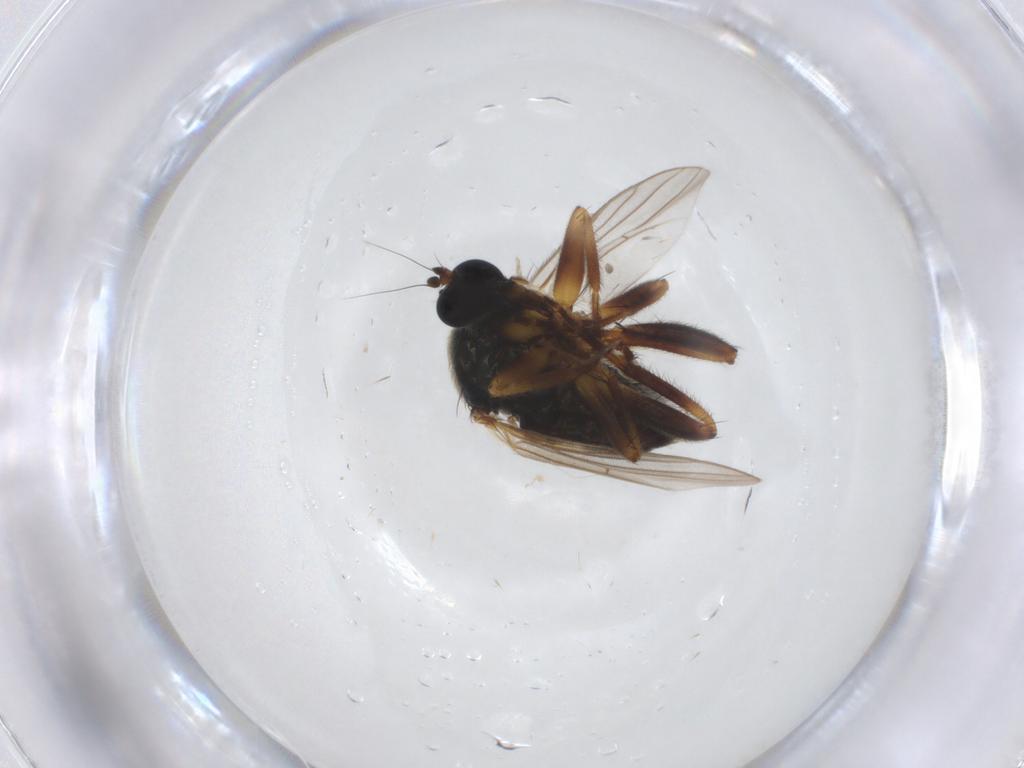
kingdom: Animalia
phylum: Arthropoda
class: Insecta
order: Diptera
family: Hybotidae
